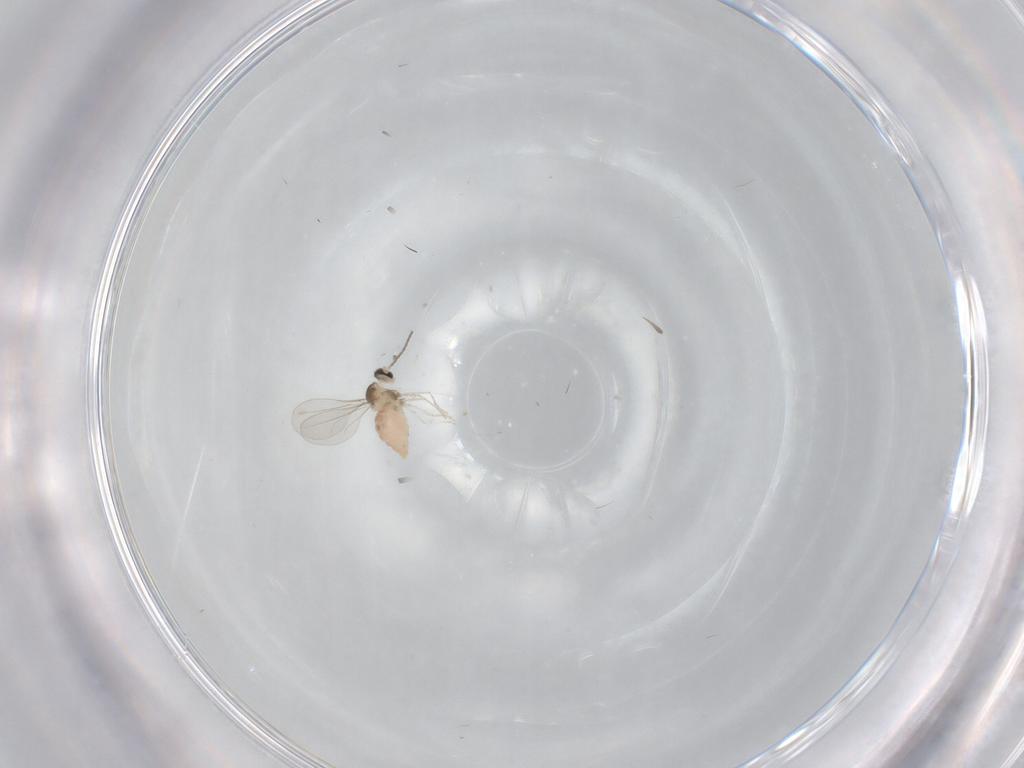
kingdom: Animalia
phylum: Arthropoda
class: Insecta
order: Diptera
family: Cecidomyiidae
